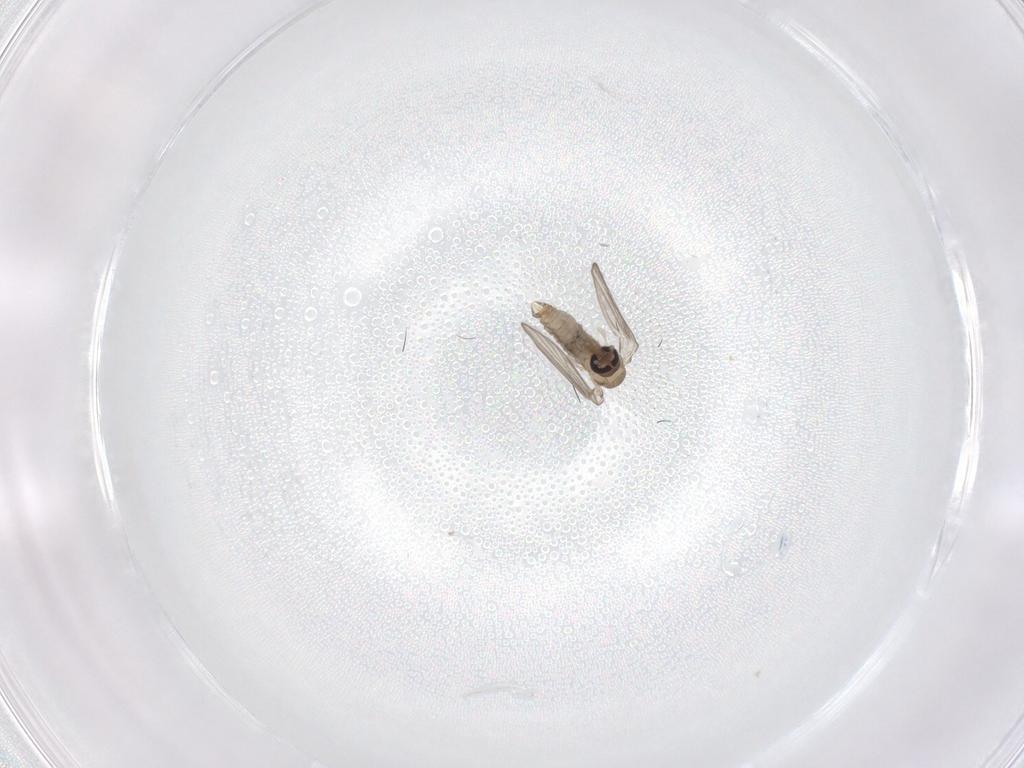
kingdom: Animalia
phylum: Arthropoda
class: Insecta
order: Diptera
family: Psychodidae
